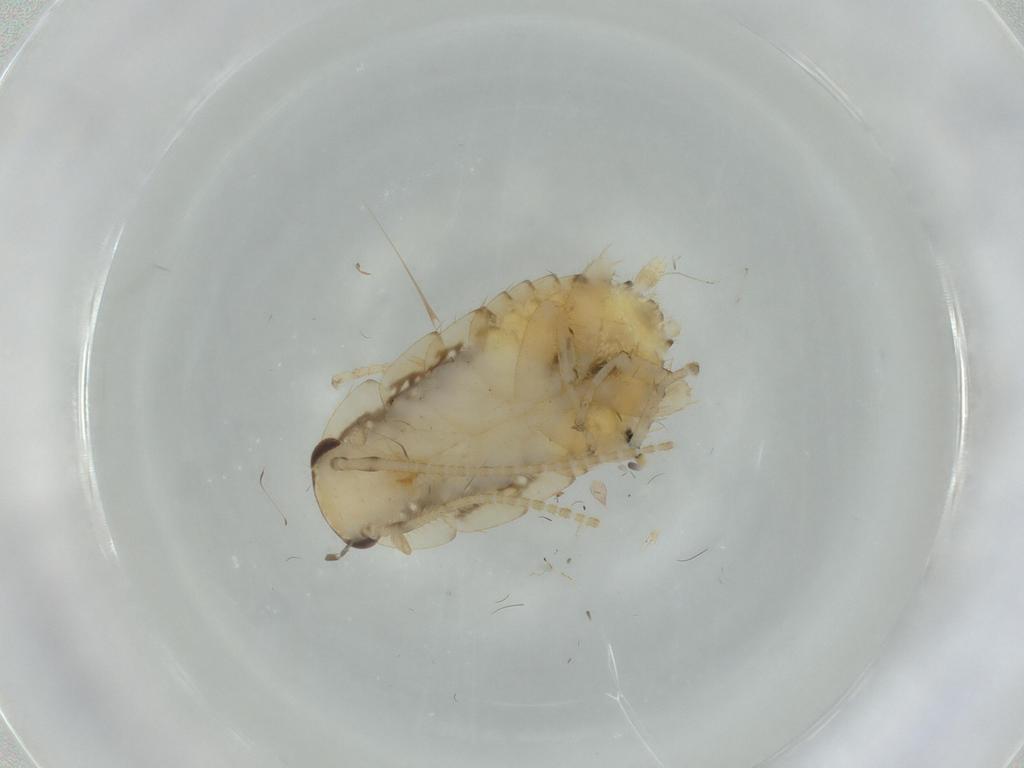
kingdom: Animalia
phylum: Arthropoda
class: Insecta
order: Blattodea
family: Ectobiidae
